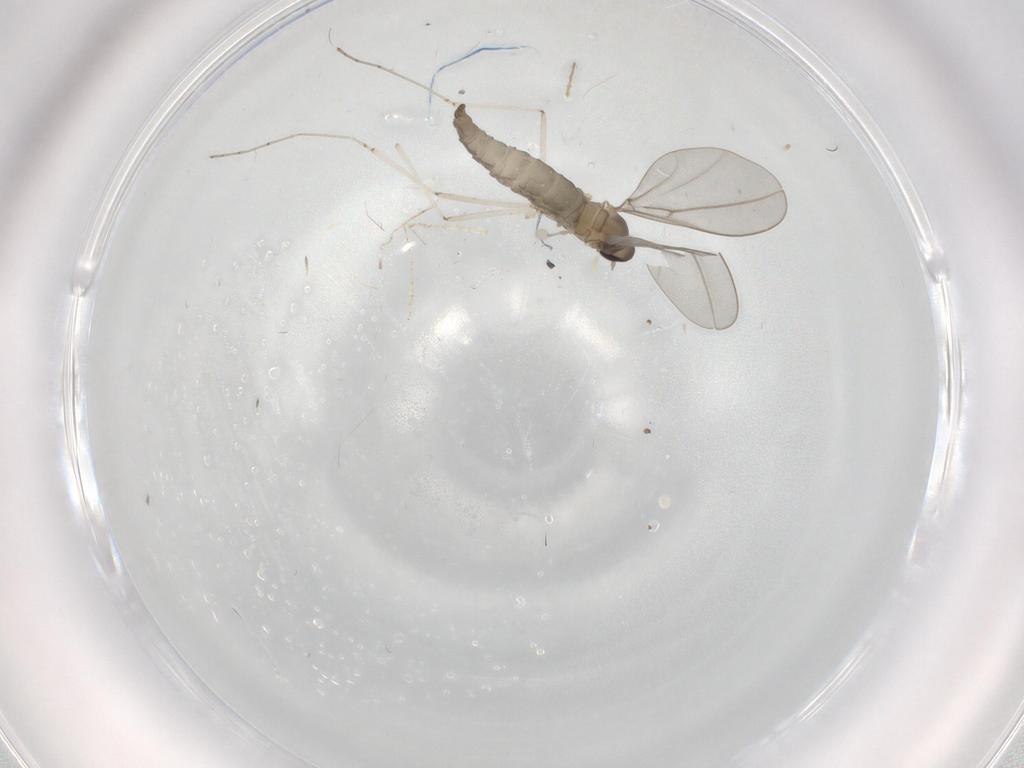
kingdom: Animalia
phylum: Arthropoda
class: Insecta
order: Diptera
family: Sciaridae
